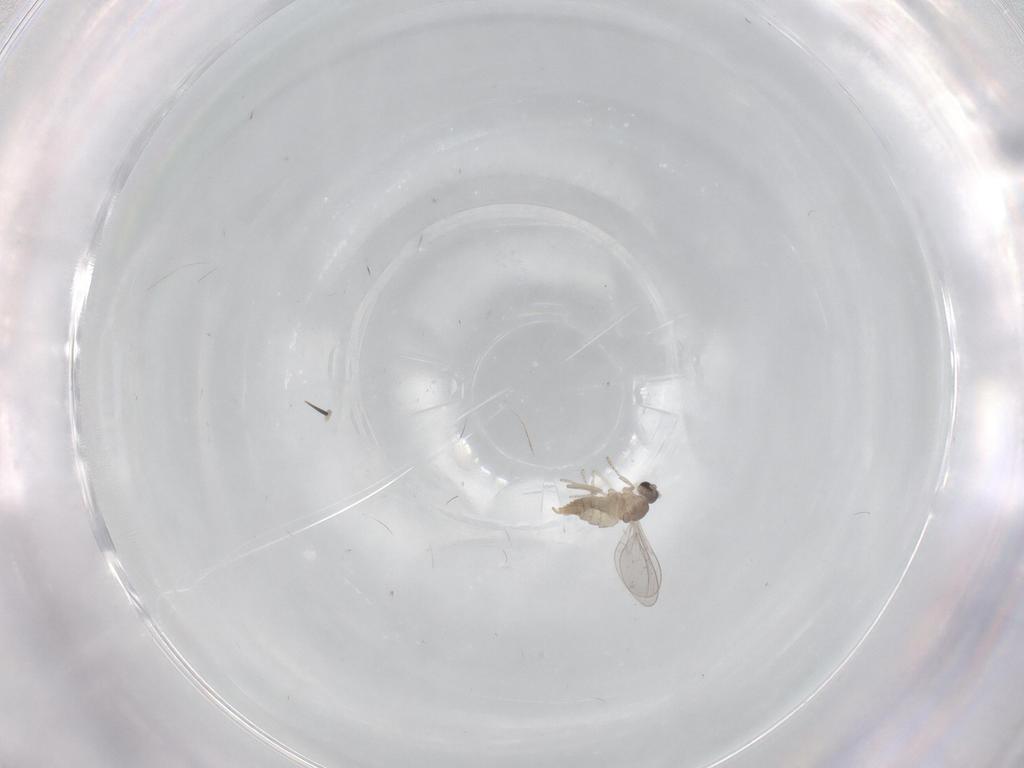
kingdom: Animalia
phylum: Arthropoda
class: Insecta
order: Diptera
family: Cecidomyiidae
